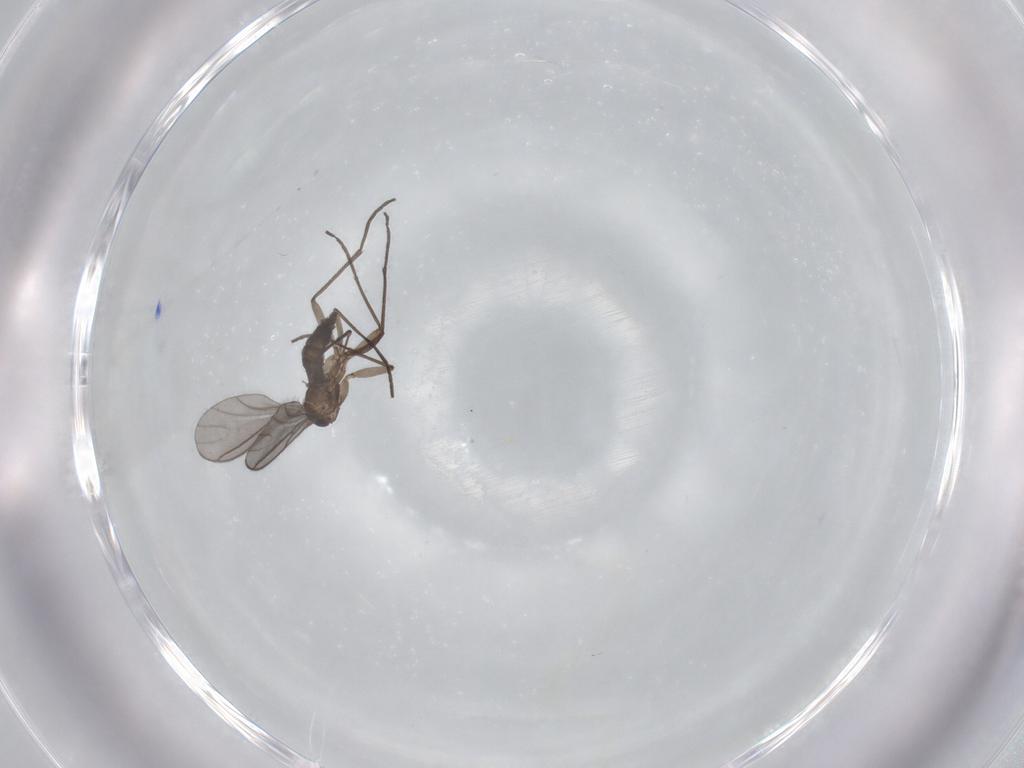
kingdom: Animalia
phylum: Arthropoda
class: Insecta
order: Diptera
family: Sciaridae
